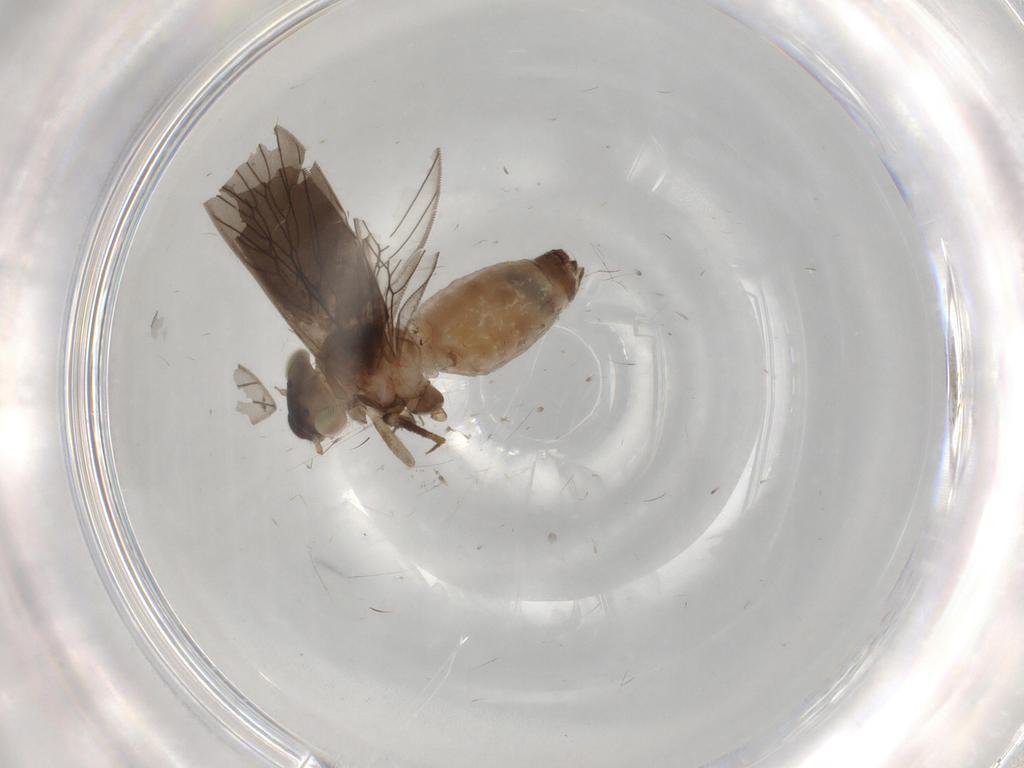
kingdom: Animalia
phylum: Arthropoda
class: Insecta
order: Psocodea
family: Lepidopsocidae
